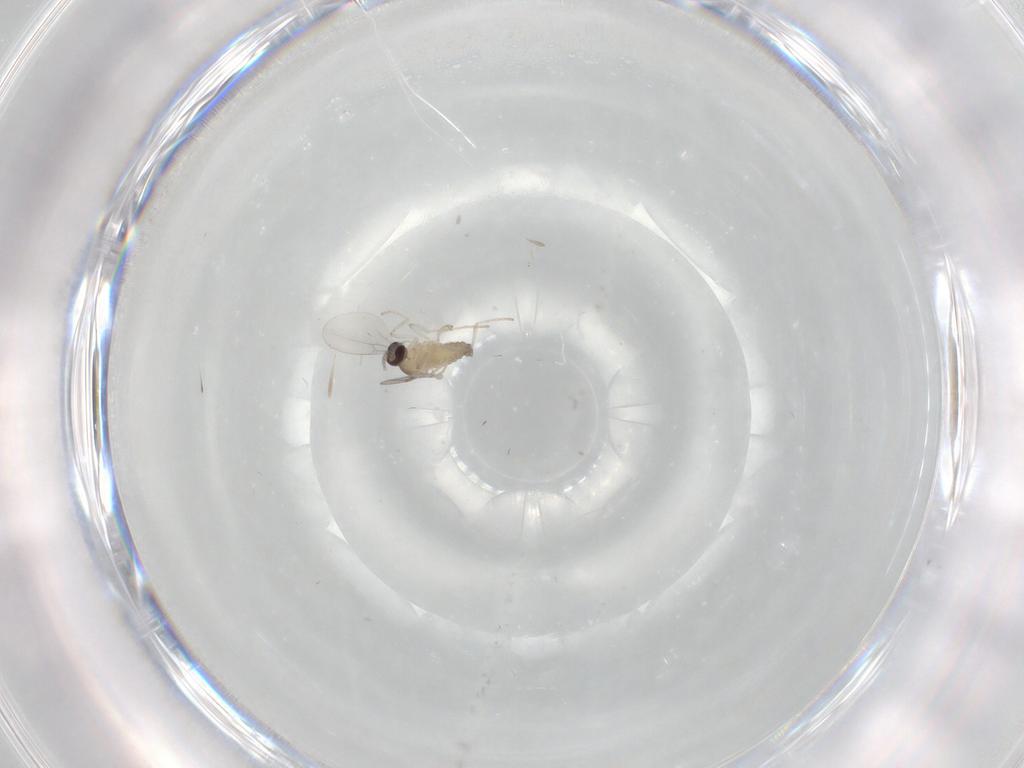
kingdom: Animalia
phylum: Arthropoda
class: Insecta
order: Diptera
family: Cecidomyiidae
